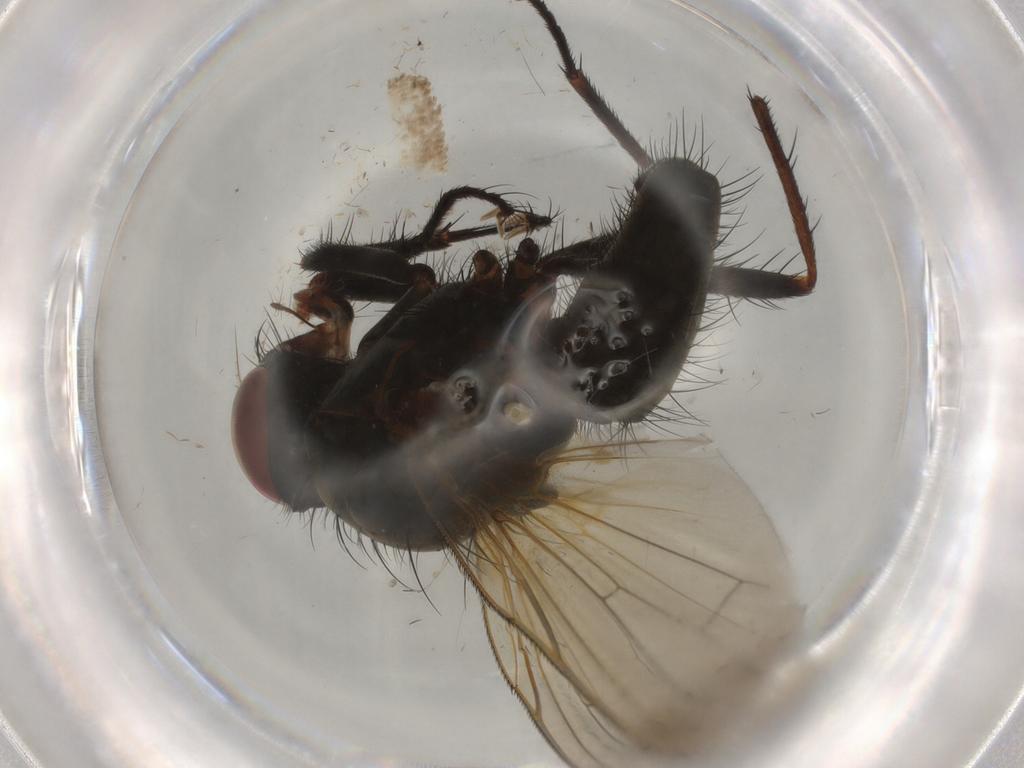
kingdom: Animalia
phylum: Arthropoda
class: Insecta
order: Diptera
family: Anthomyiidae
